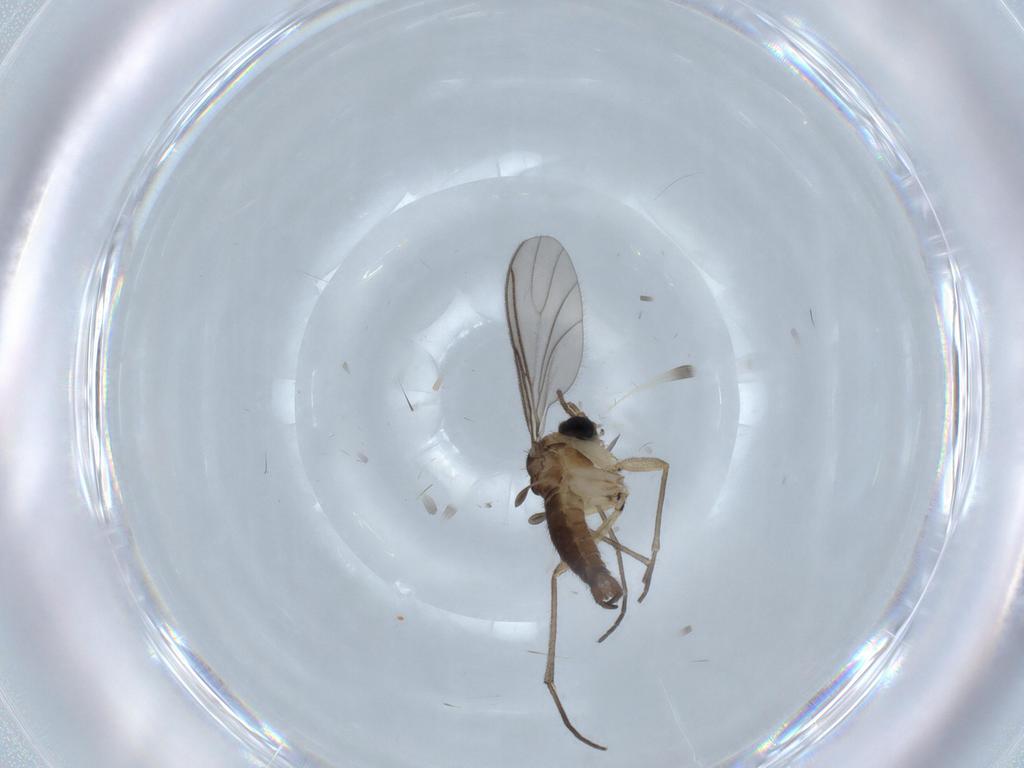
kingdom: Animalia
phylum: Arthropoda
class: Insecta
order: Diptera
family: Sciaridae
